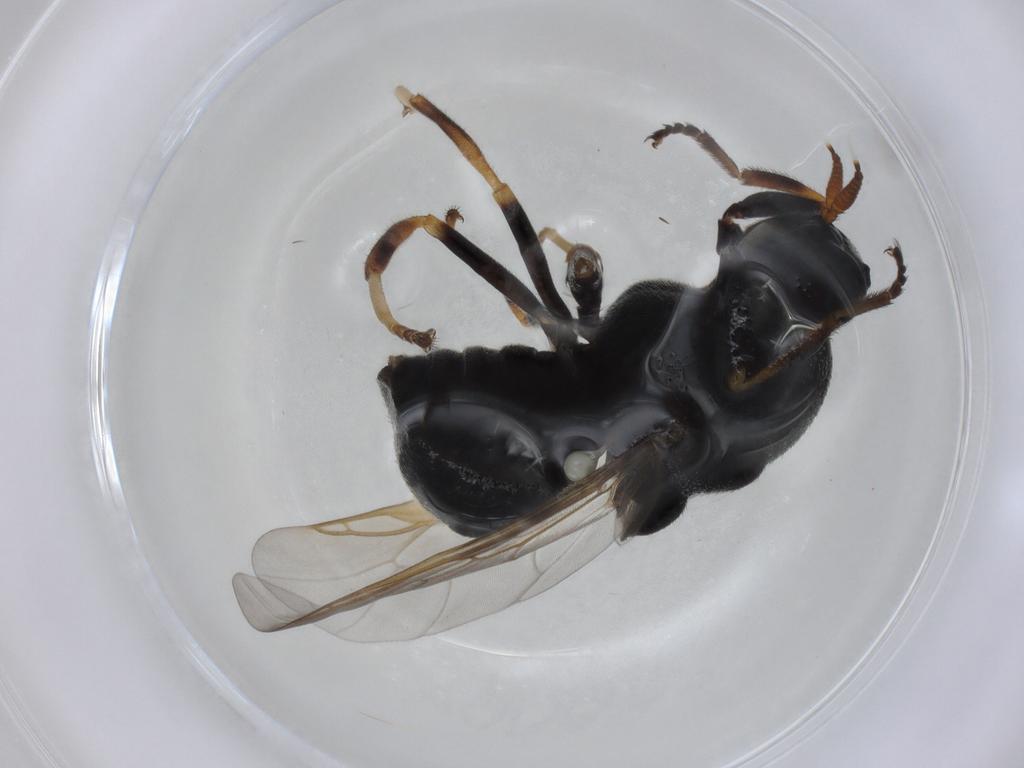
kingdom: Animalia
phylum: Arthropoda
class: Insecta
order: Diptera
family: Stratiomyidae
